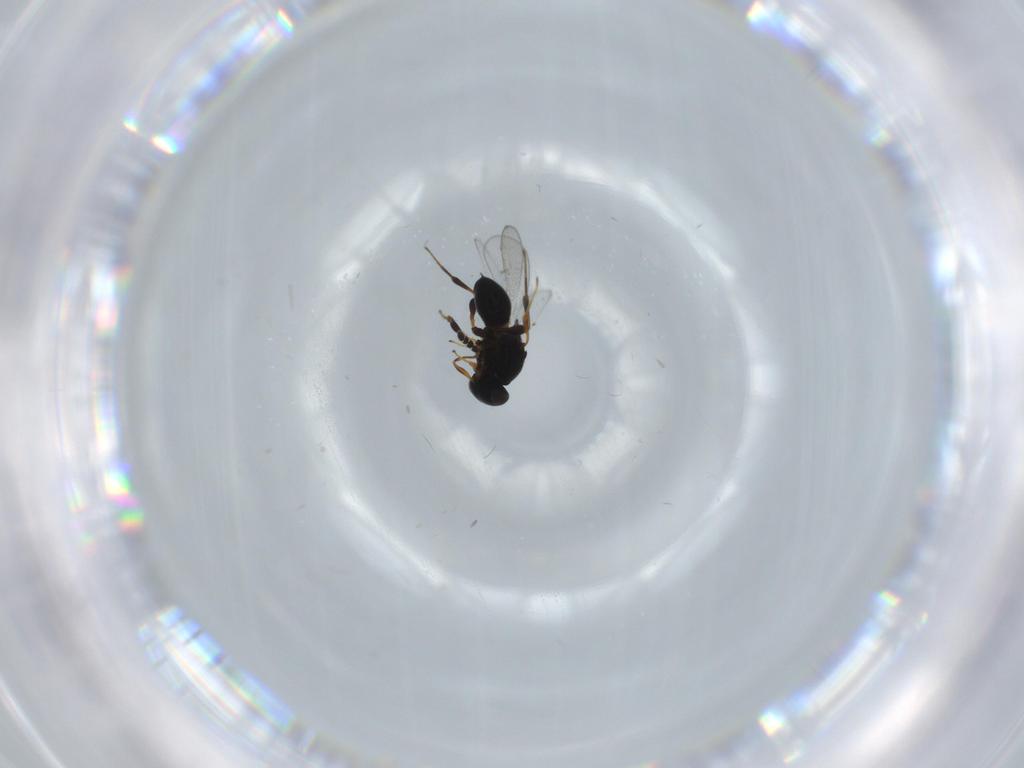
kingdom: Animalia
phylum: Arthropoda
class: Insecta
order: Hymenoptera
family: Platygastridae
